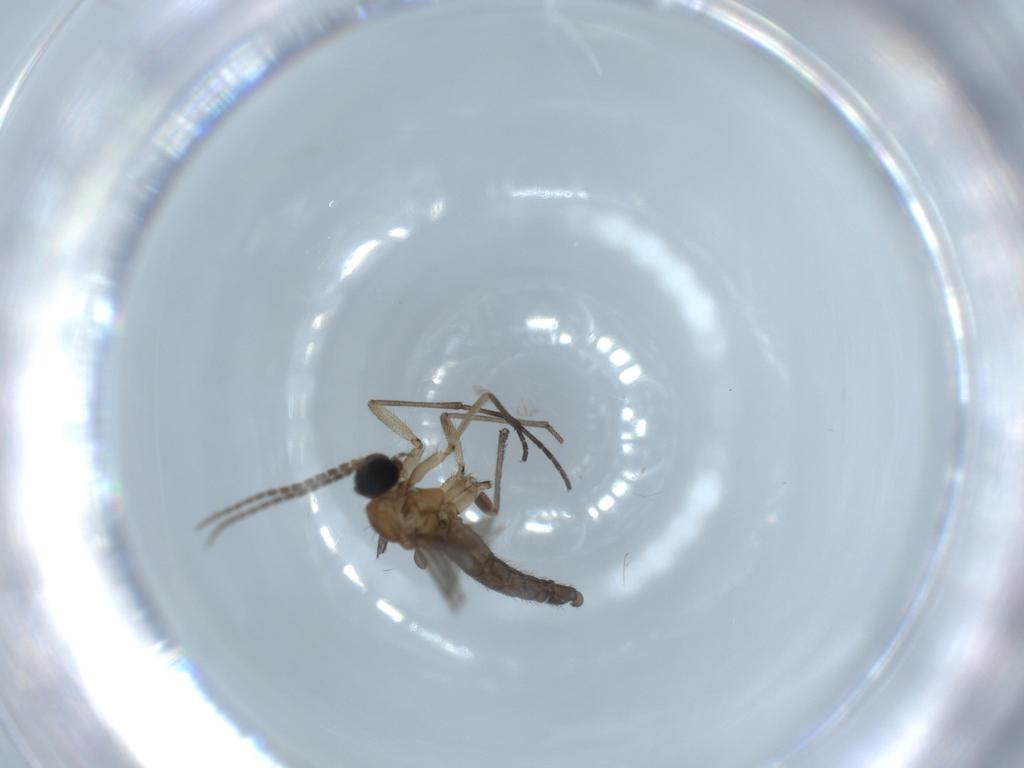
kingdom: Animalia
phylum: Arthropoda
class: Insecta
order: Diptera
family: Sciaridae
